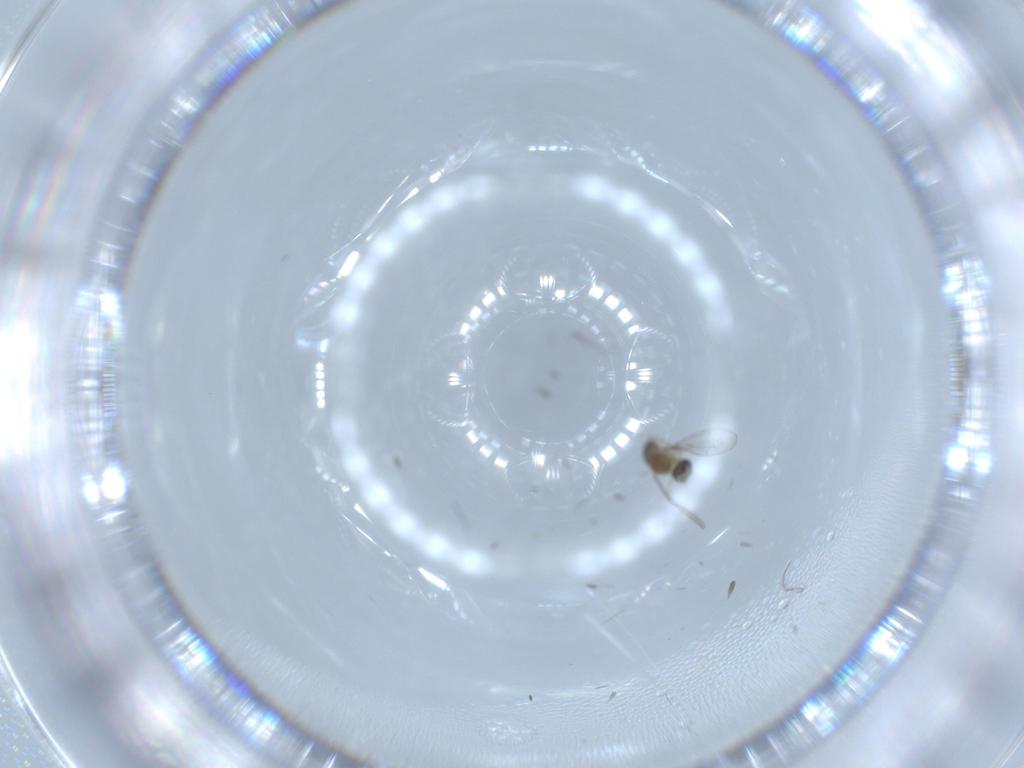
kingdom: Animalia
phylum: Arthropoda
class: Insecta
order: Diptera
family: Cecidomyiidae
